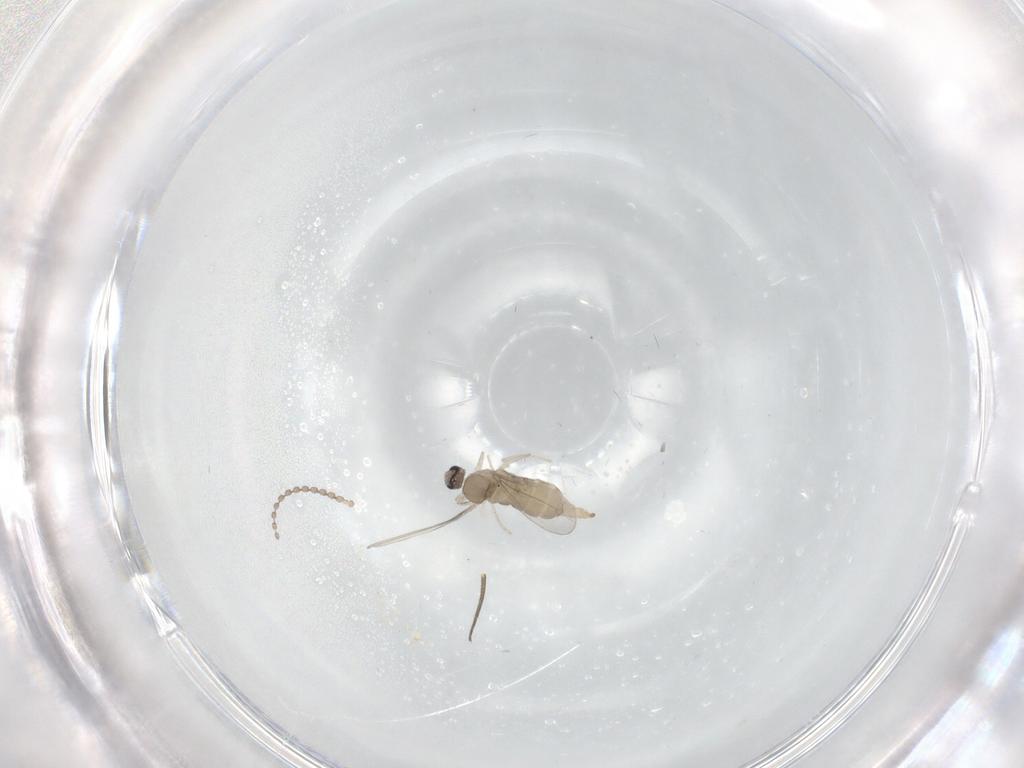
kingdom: Animalia
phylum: Arthropoda
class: Insecta
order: Diptera
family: Cecidomyiidae
